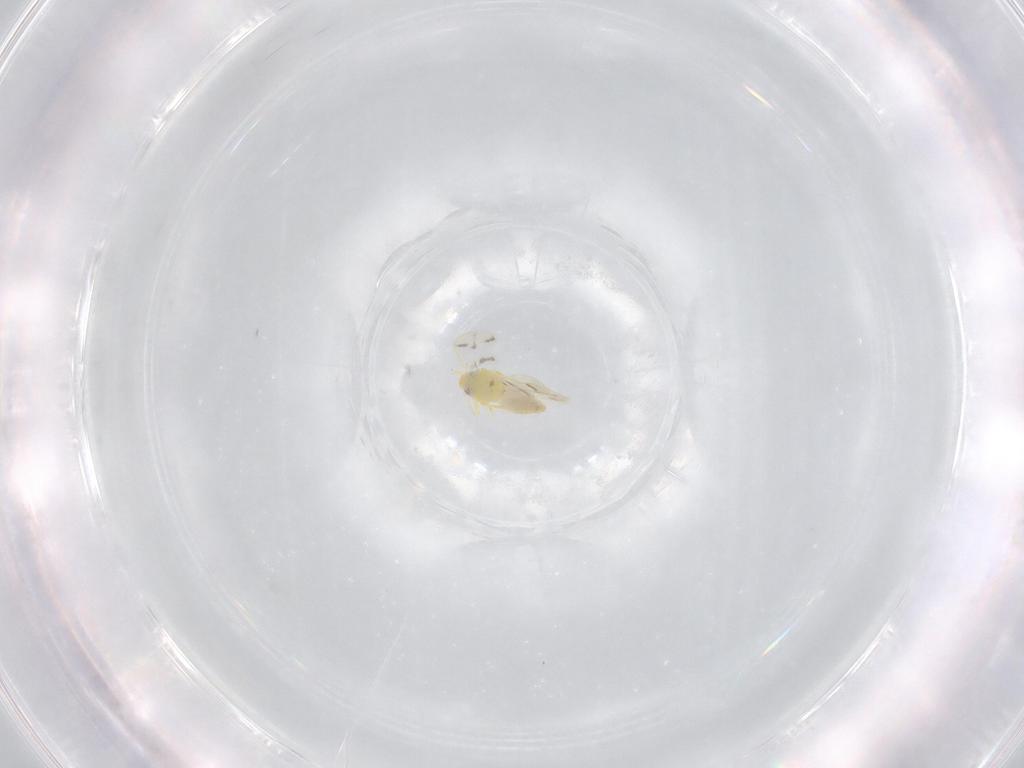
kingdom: Animalia
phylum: Arthropoda
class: Insecta
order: Hemiptera
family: Aleyrodidae
